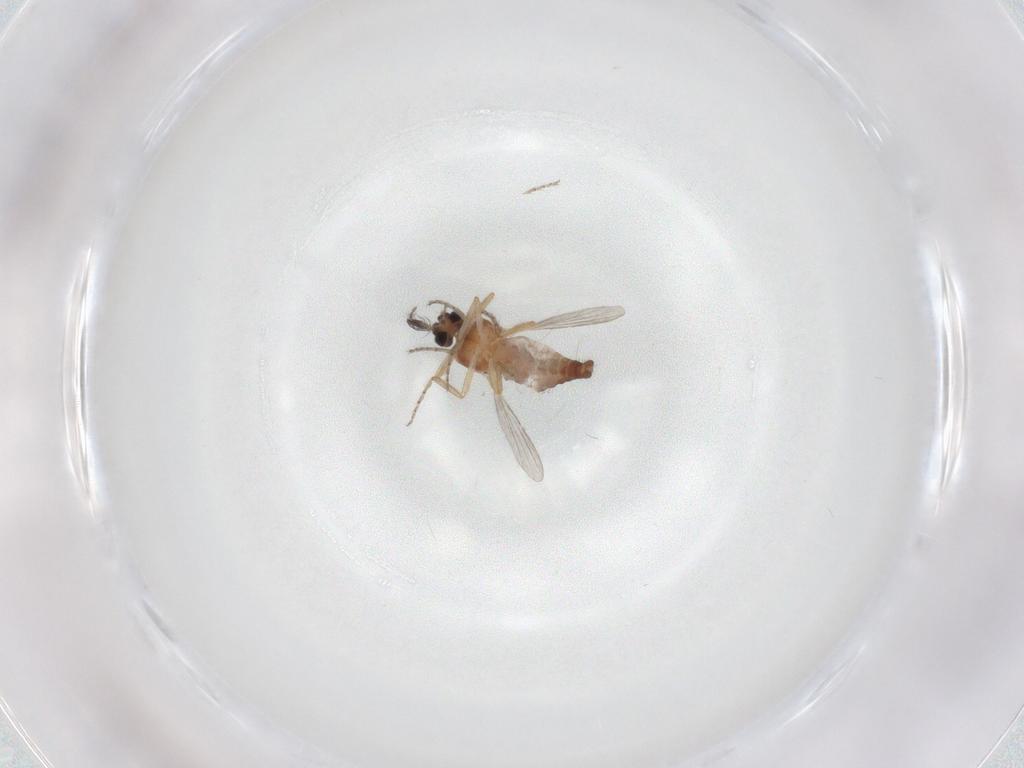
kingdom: Animalia
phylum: Arthropoda
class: Insecta
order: Diptera
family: Ceratopogonidae
